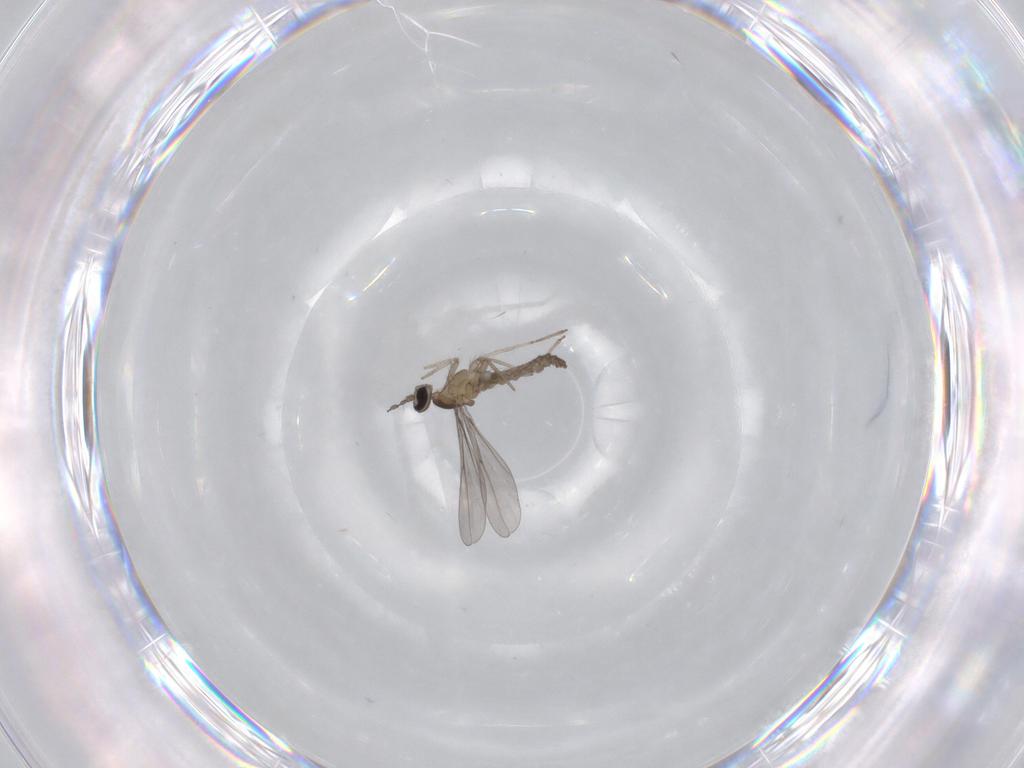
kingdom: Animalia
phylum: Arthropoda
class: Insecta
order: Diptera
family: Cecidomyiidae
